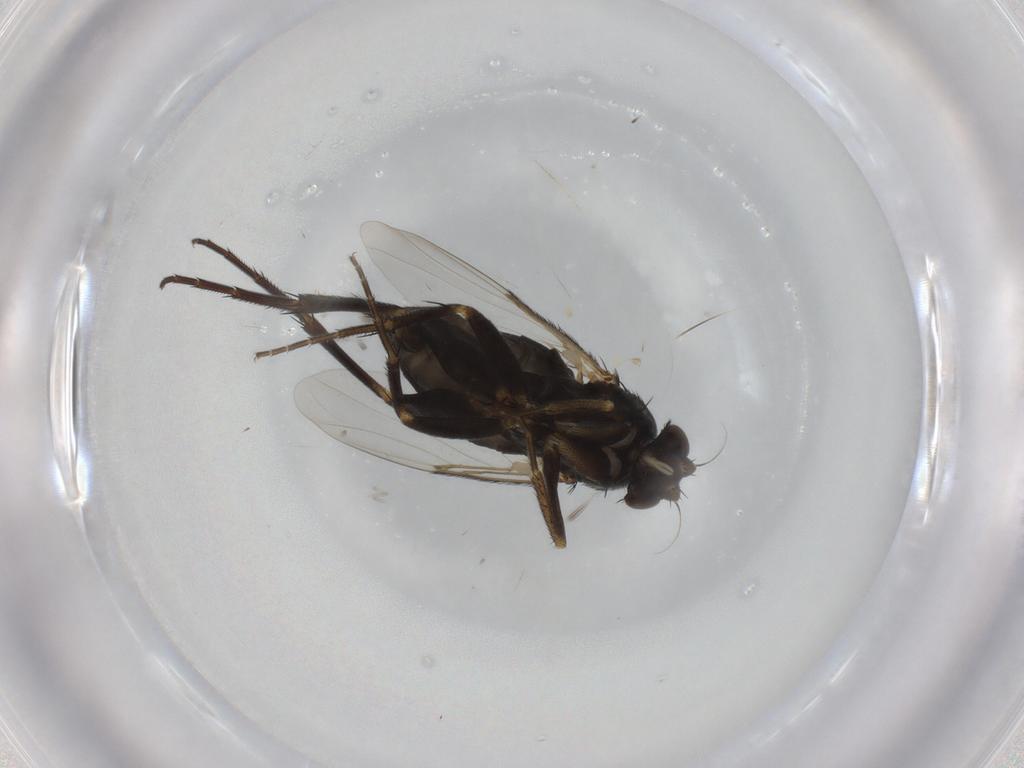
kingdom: Animalia
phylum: Arthropoda
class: Insecta
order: Diptera
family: Phoridae
